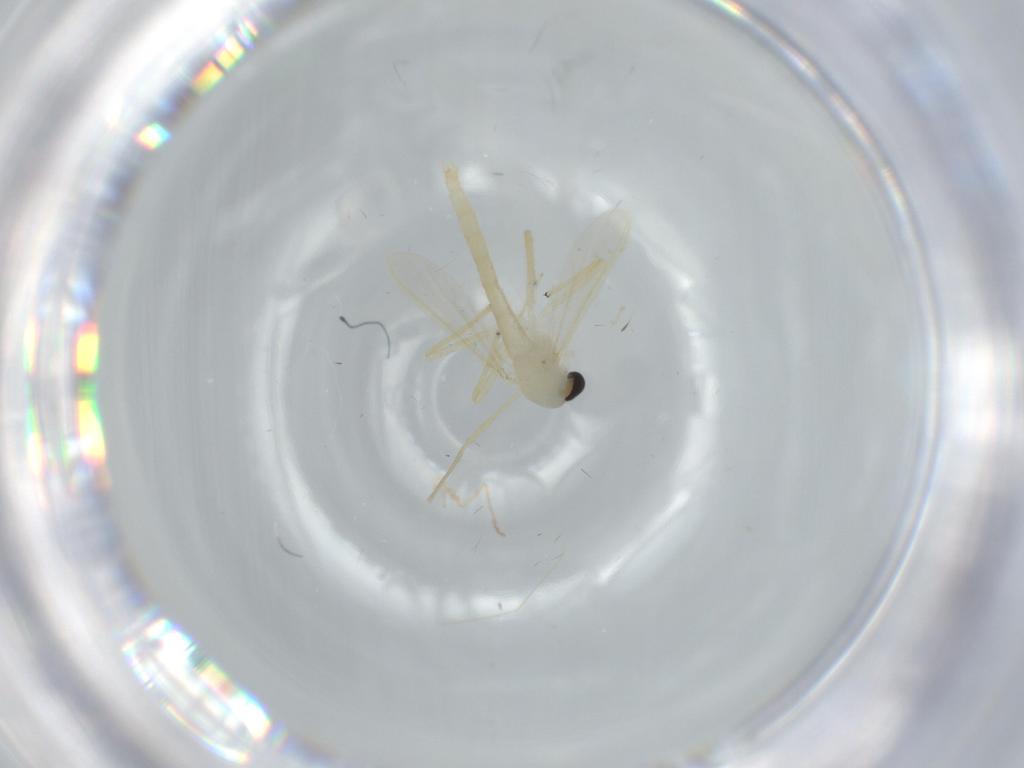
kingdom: Animalia
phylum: Arthropoda
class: Insecta
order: Diptera
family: Chironomidae
